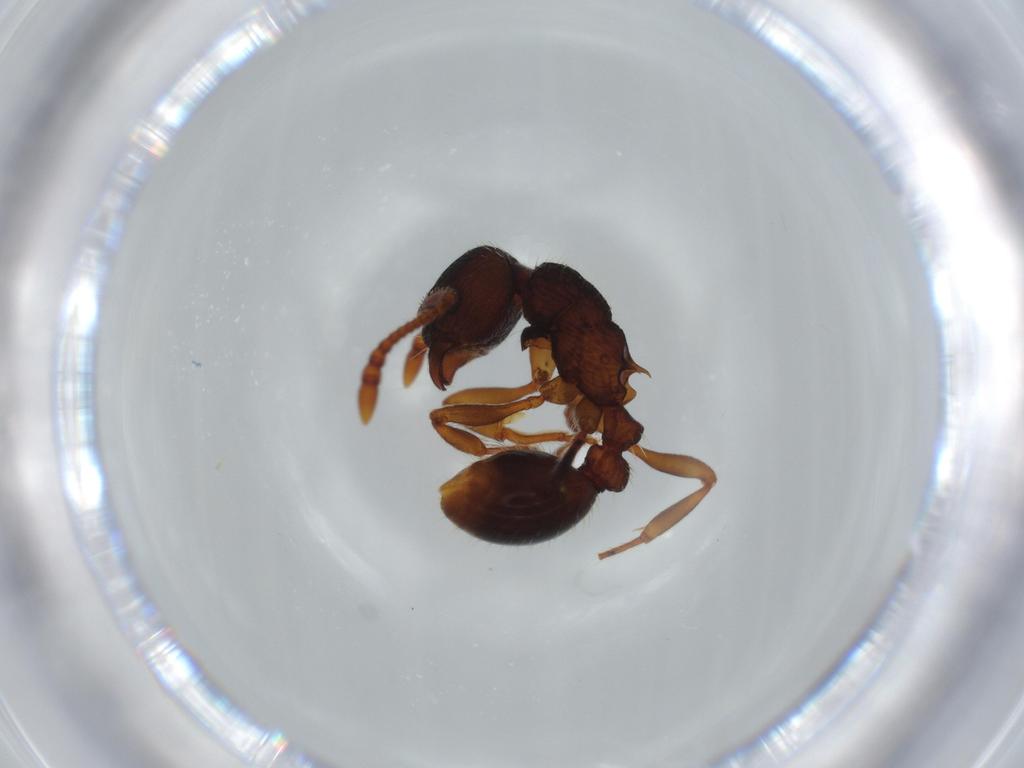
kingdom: Animalia
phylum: Arthropoda
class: Insecta
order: Hymenoptera
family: Formicidae
